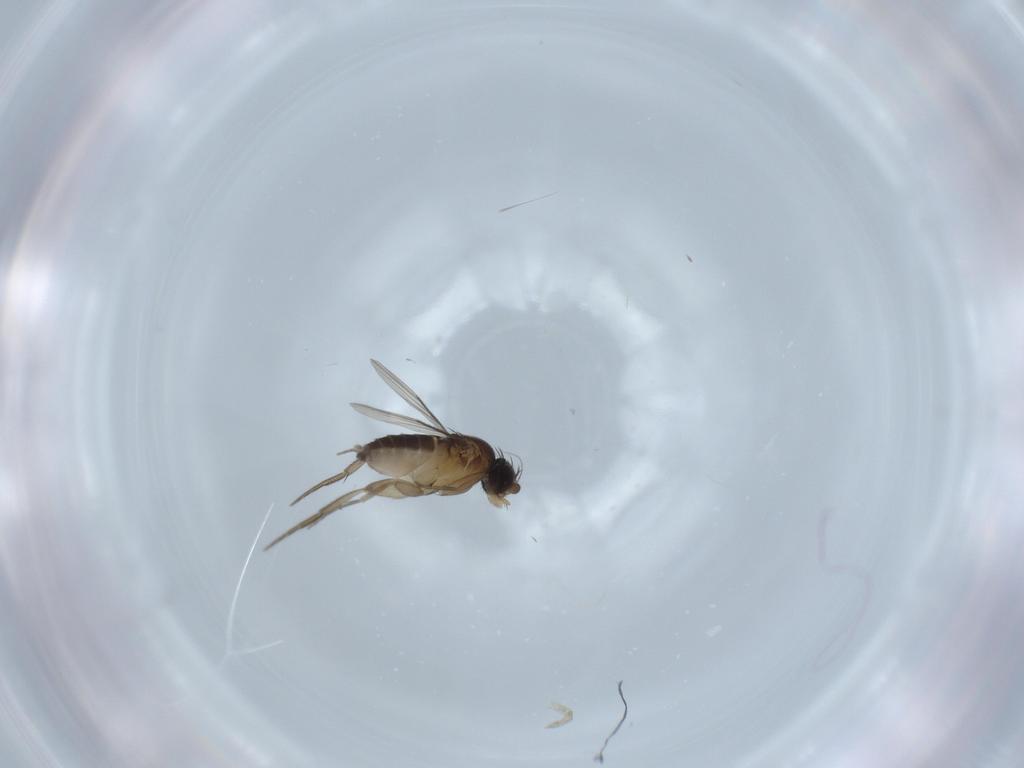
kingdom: Animalia
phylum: Arthropoda
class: Insecta
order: Diptera
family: Phoridae
